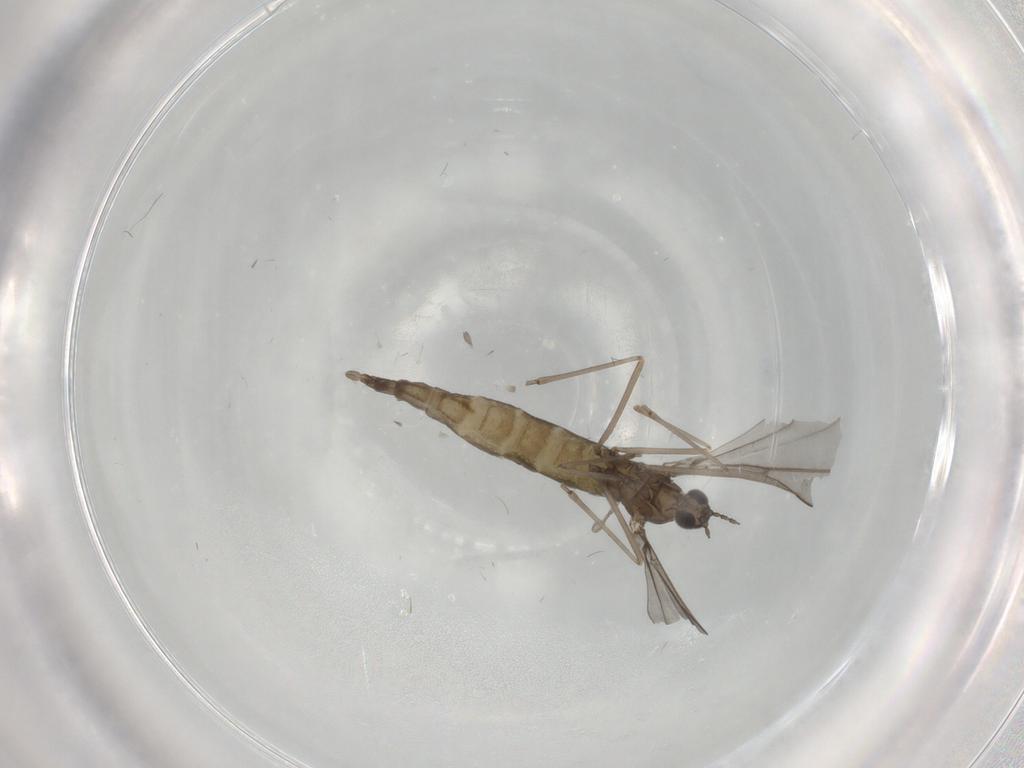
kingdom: Animalia
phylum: Arthropoda
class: Insecta
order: Diptera
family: Cecidomyiidae
